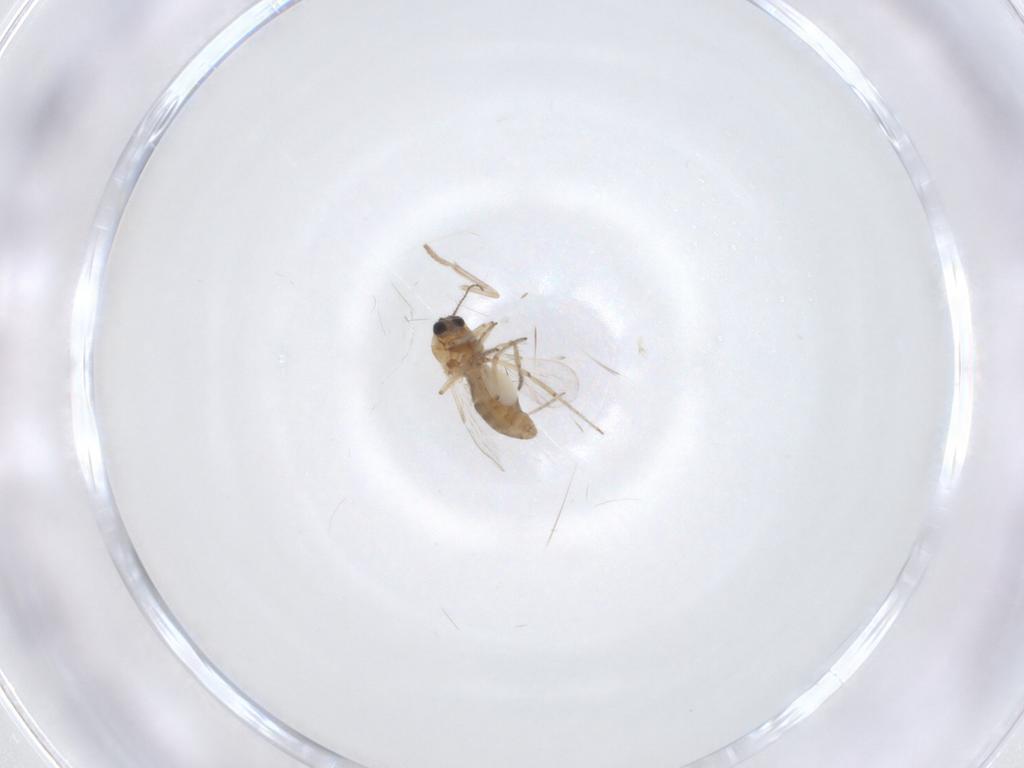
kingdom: Animalia
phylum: Arthropoda
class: Insecta
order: Diptera
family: Ceratopogonidae
